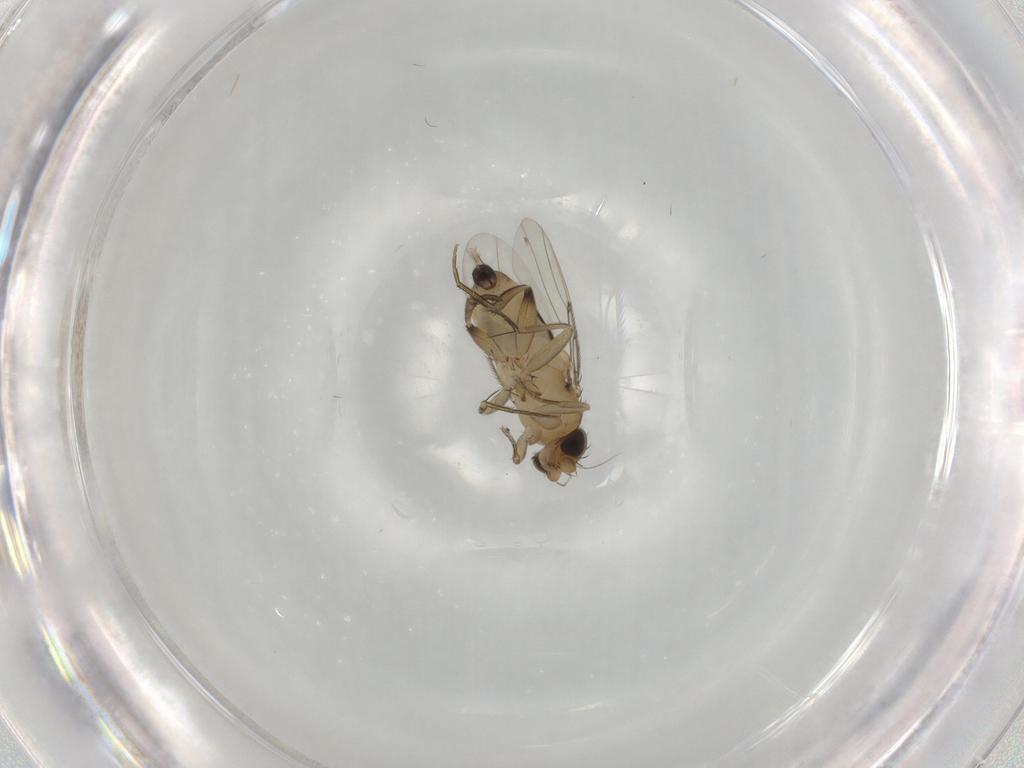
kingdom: Animalia
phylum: Arthropoda
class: Insecta
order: Diptera
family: Phoridae
